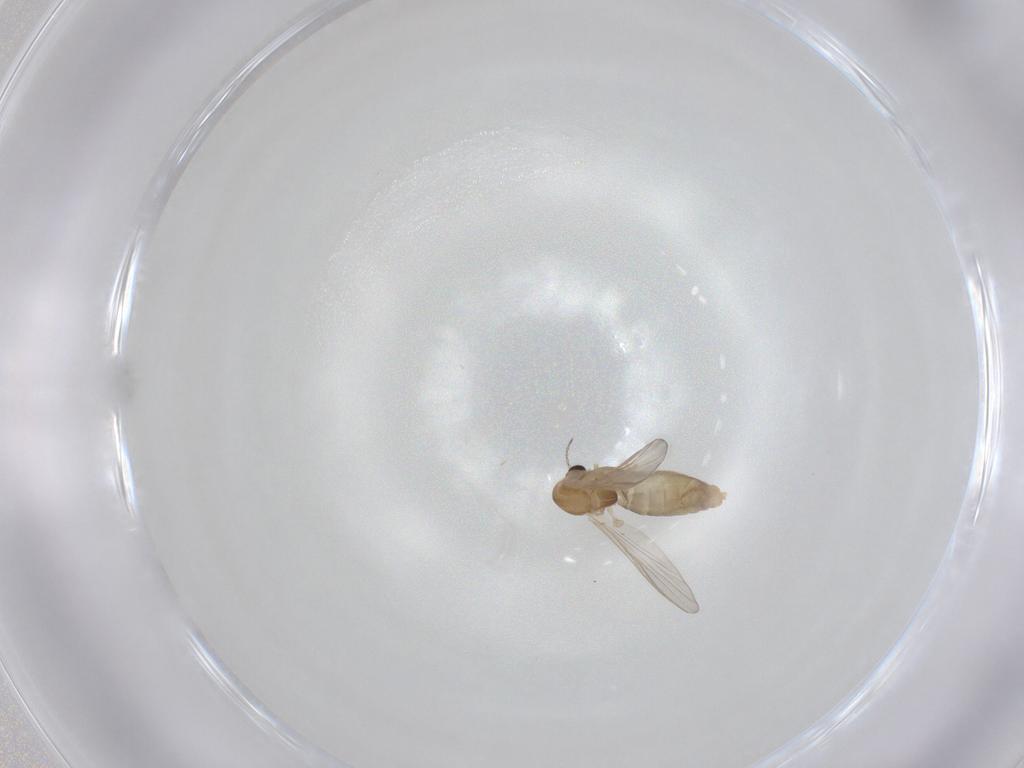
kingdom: Animalia
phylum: Arthropoda
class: Insecta
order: Diptera
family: Chironomidae
